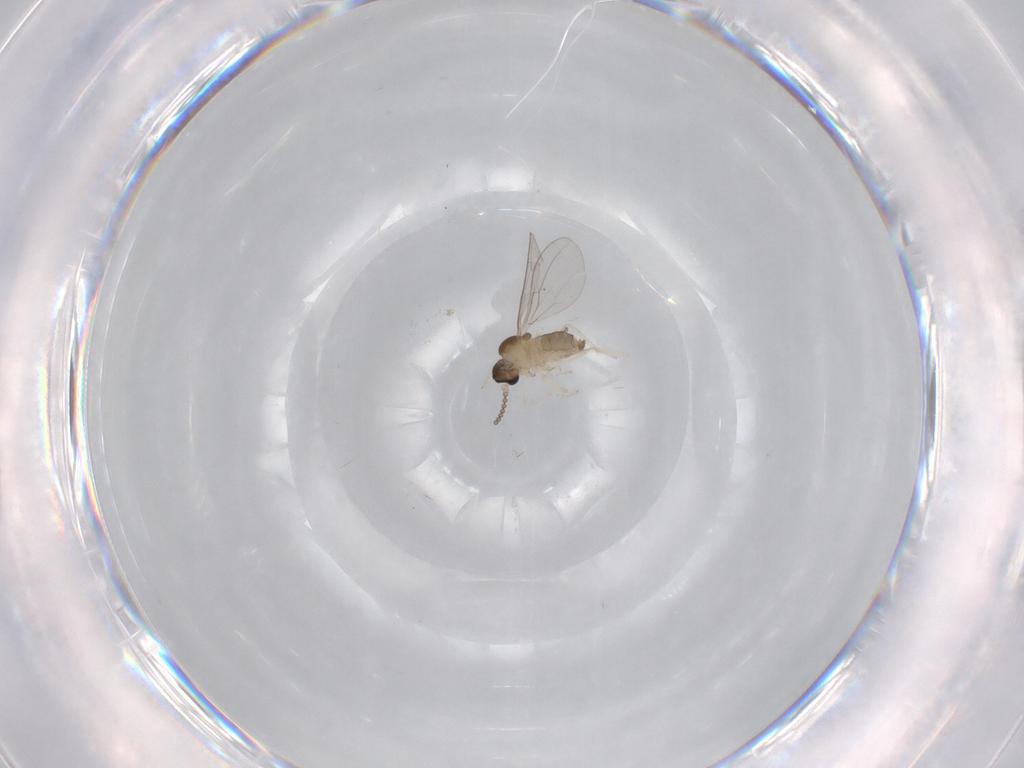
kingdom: Animalia
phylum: Arthropoda
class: Insecta
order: Diptera
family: Cecidomyiidae
